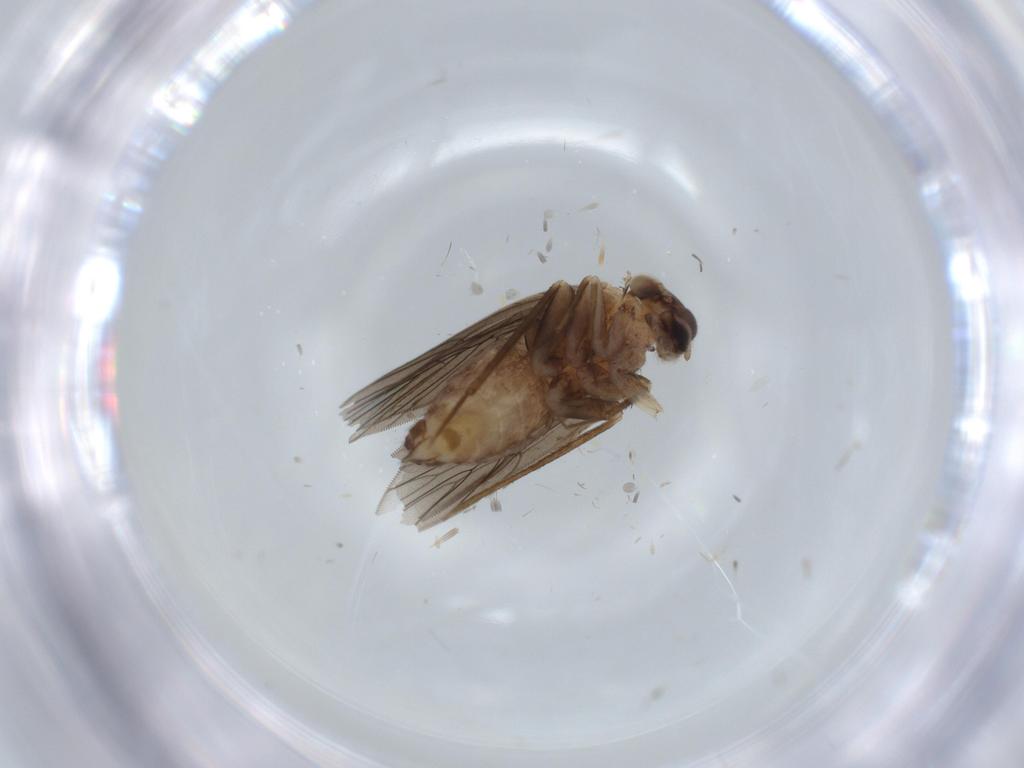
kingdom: Animalia
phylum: Arthropoda
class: Insecta
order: Psocodea
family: Lepidopsocidae
